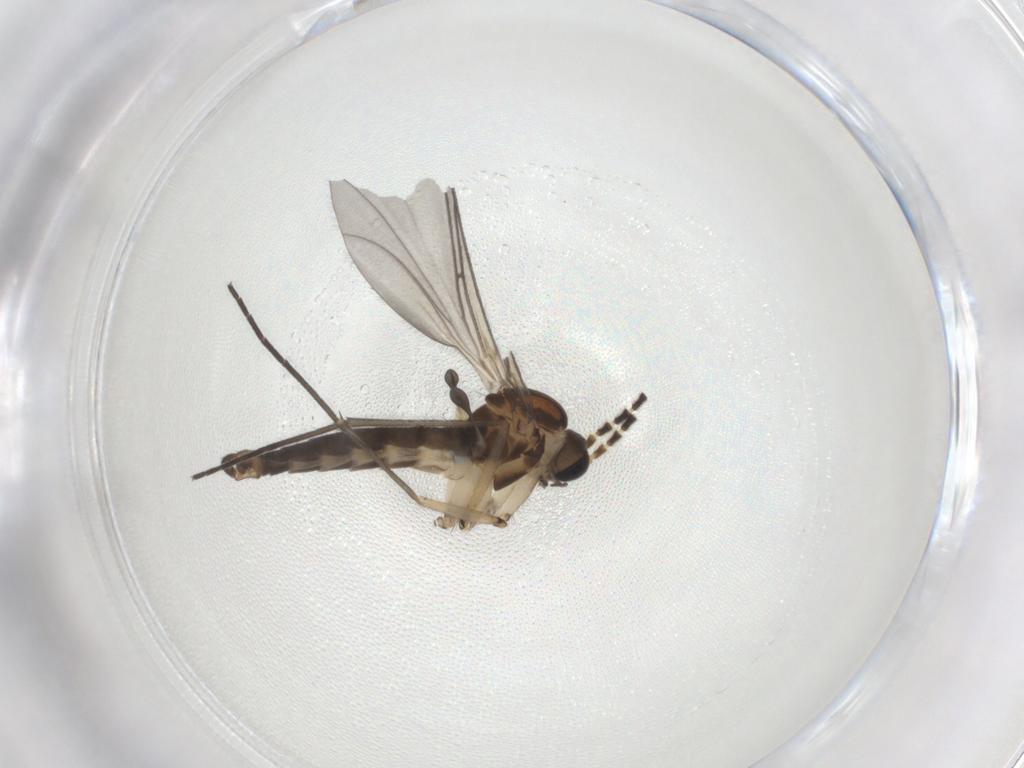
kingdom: Animalia
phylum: Arthropoda
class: Insecta
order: Diptera
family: Sciaridae
